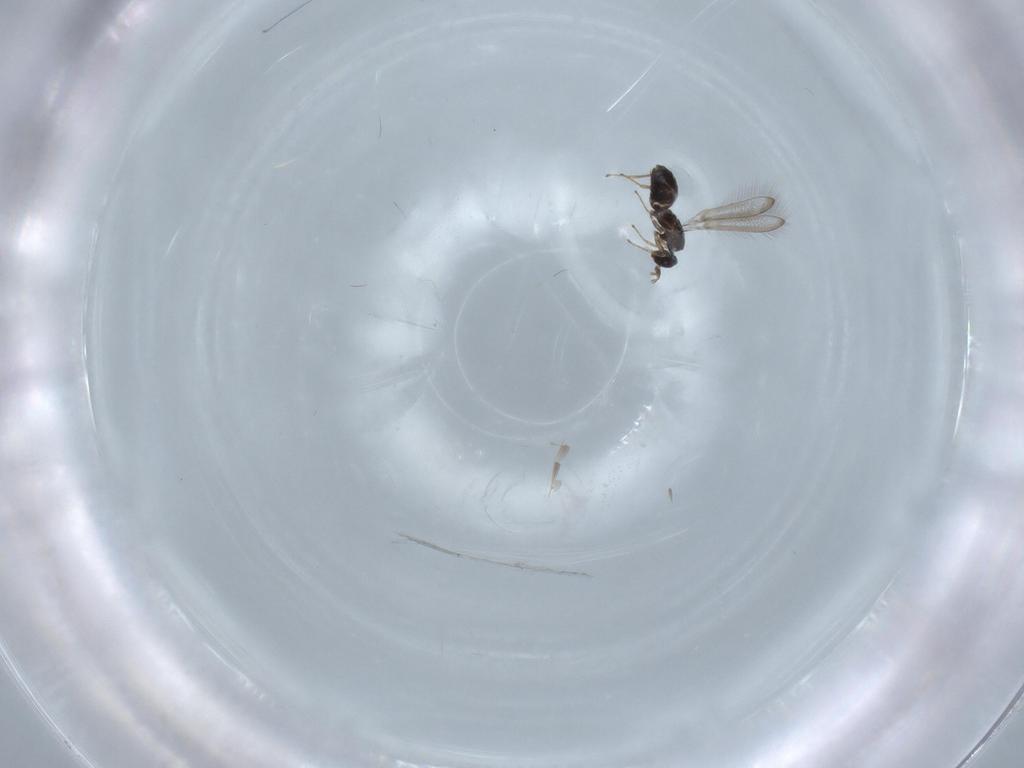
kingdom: Animalia
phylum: Arthropoda
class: Insecta
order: Hymenoptera
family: Mymaridae
